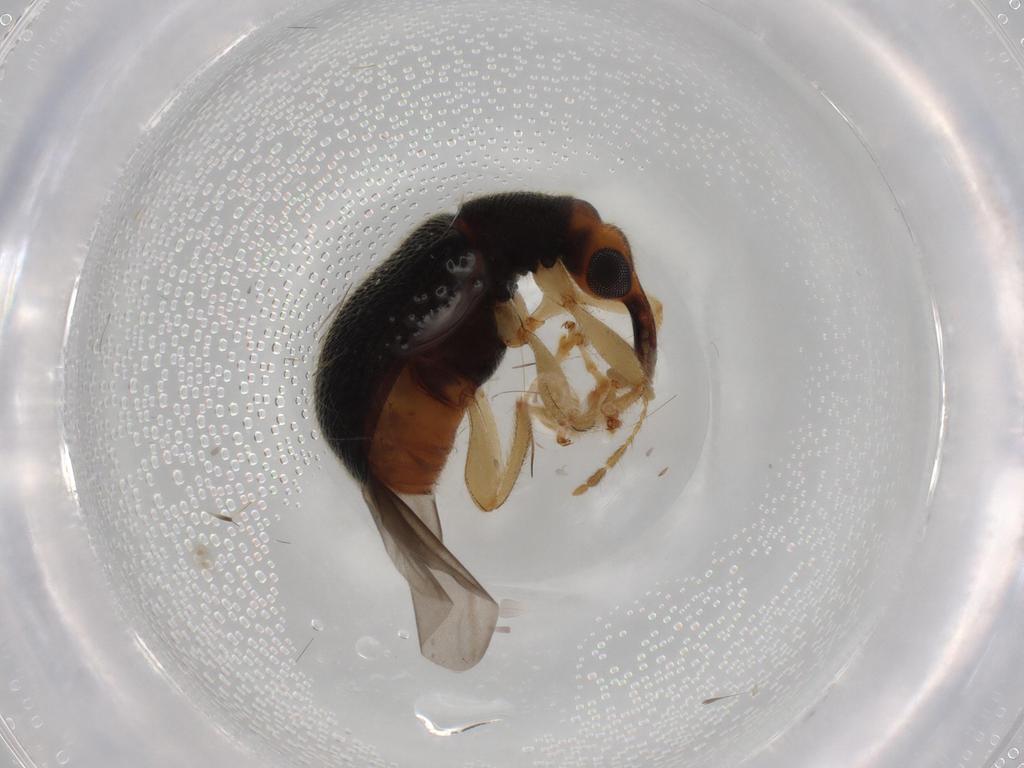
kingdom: Animalia
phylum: Arthropoda
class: Insecta
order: Coleoptera
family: Attelabidae
